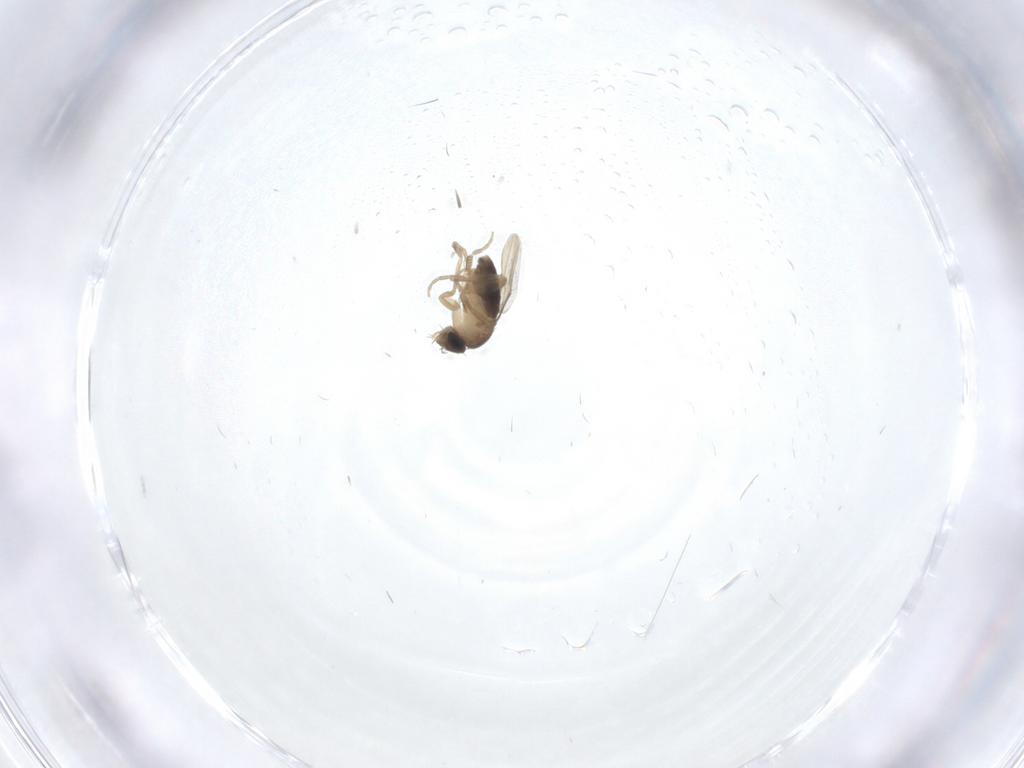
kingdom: Animalia
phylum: Arthropoda
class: Insecta
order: Diptera
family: Phoridae
